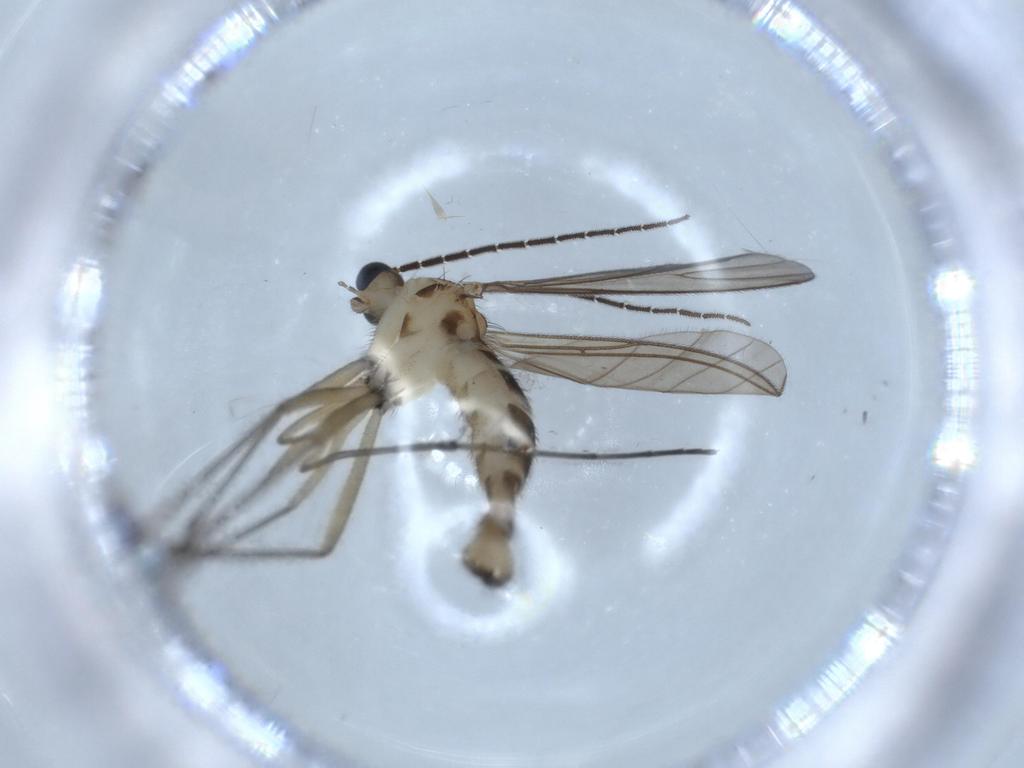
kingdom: Animalia
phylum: Arthropoda
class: Insecta
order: Diptera
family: Sciaridae
